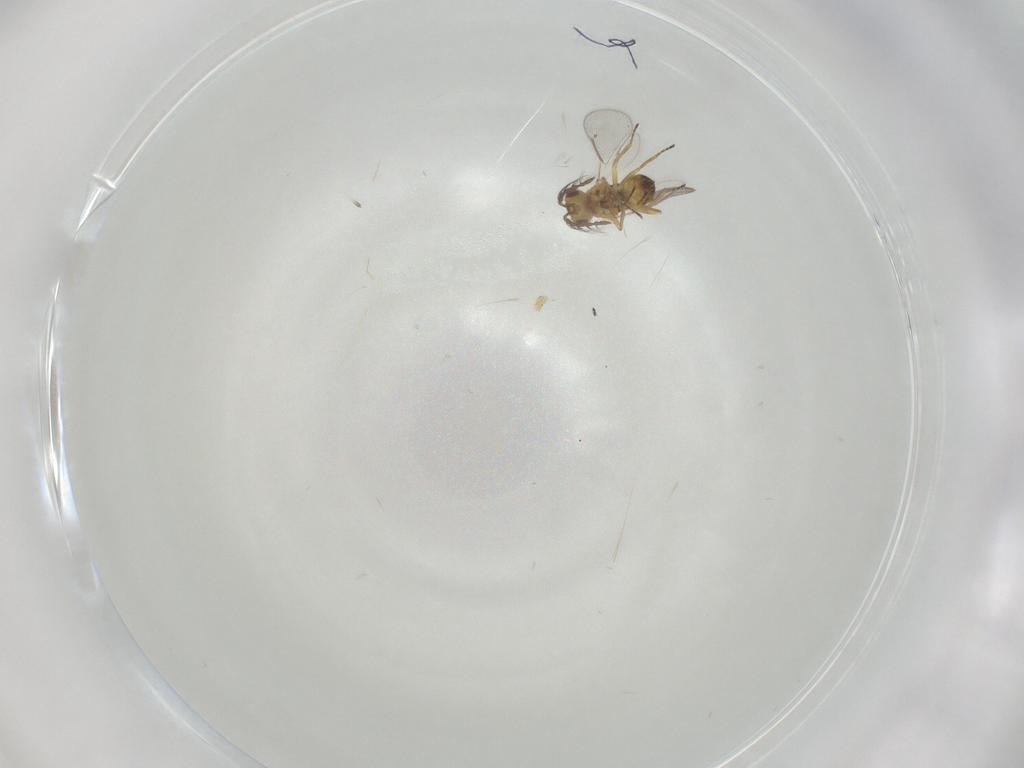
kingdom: Animalia
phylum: Arthropoda
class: Insecta
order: Hymenoptera
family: Eulophidae
